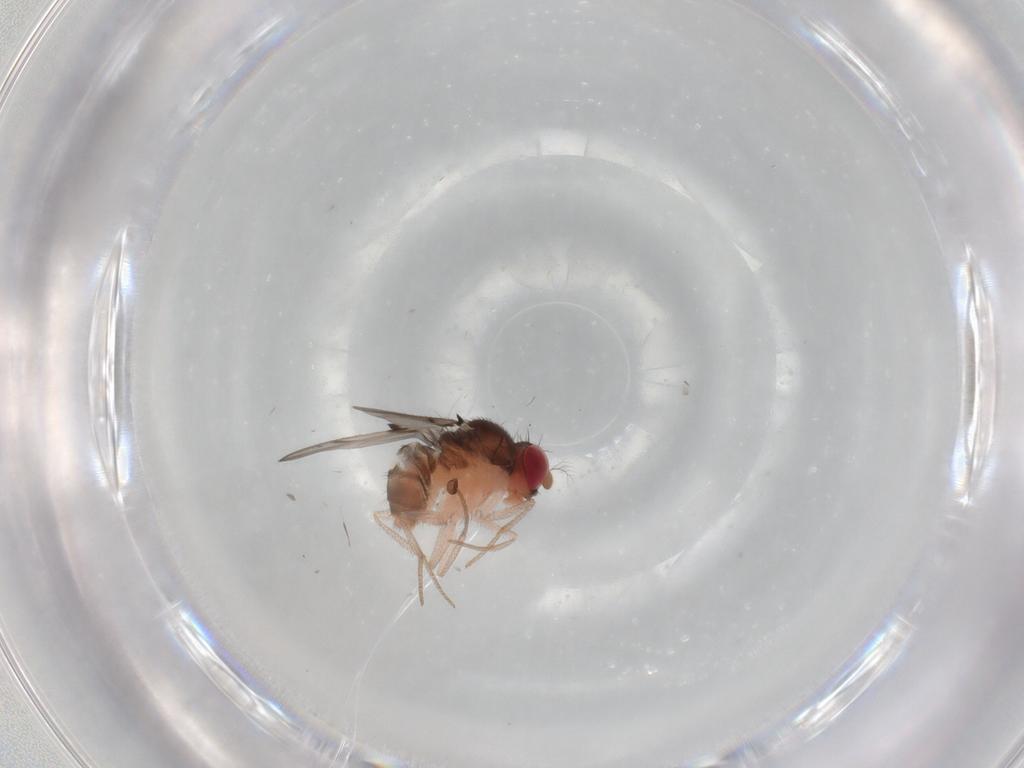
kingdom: Animalia
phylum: Arthropoda
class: Insecta
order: Diptera
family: Drosophilidae
